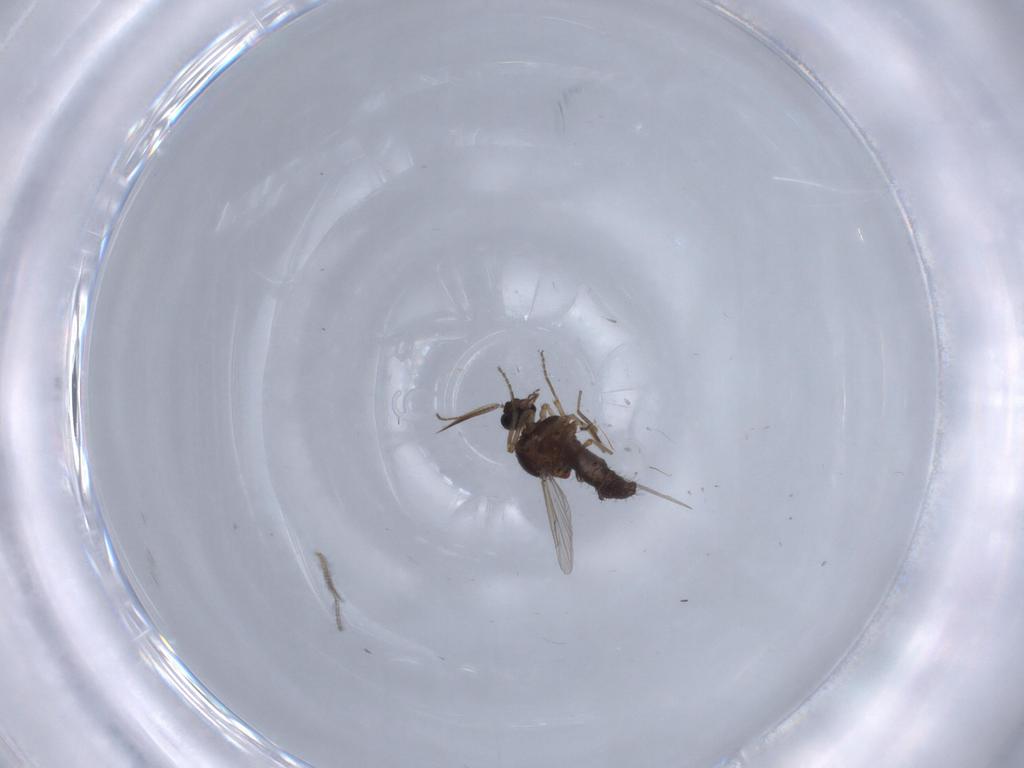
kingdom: Animalia
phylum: Arthropoda
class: Insecta
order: Diptera
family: Ceratopogonidae
